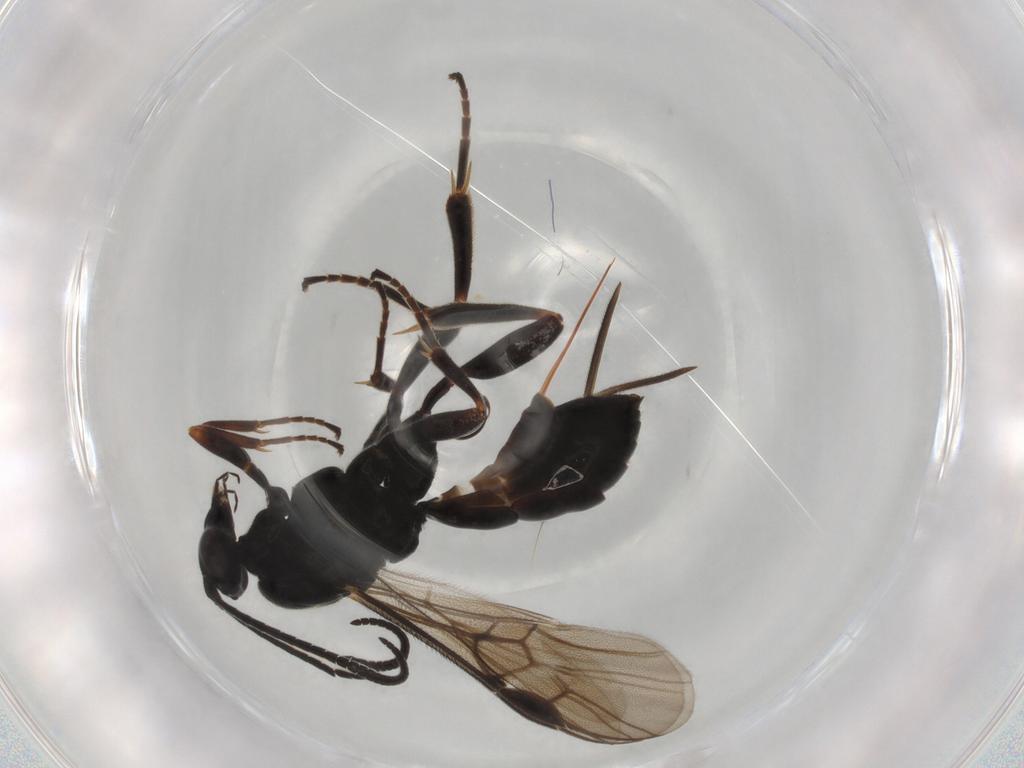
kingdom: Animalia
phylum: Arthropoda
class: Insecta
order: Hymenoptera
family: Braconidae
